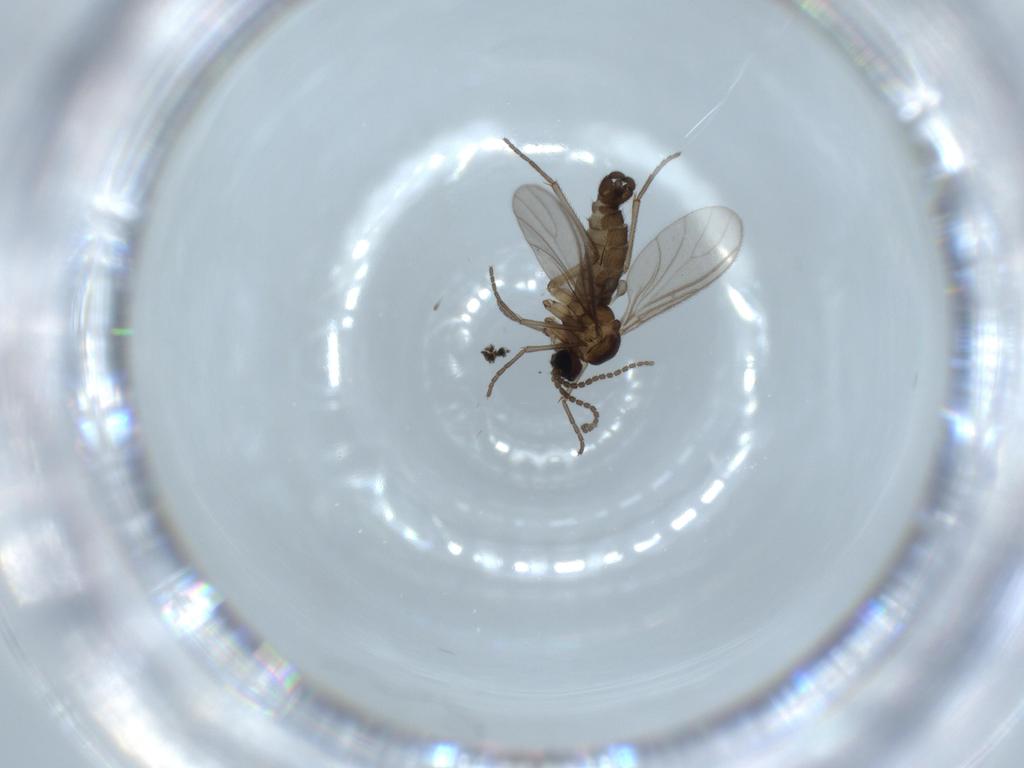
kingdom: Animalia
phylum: Arthropoda
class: Insecta
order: Diptera
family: Sciaridae
